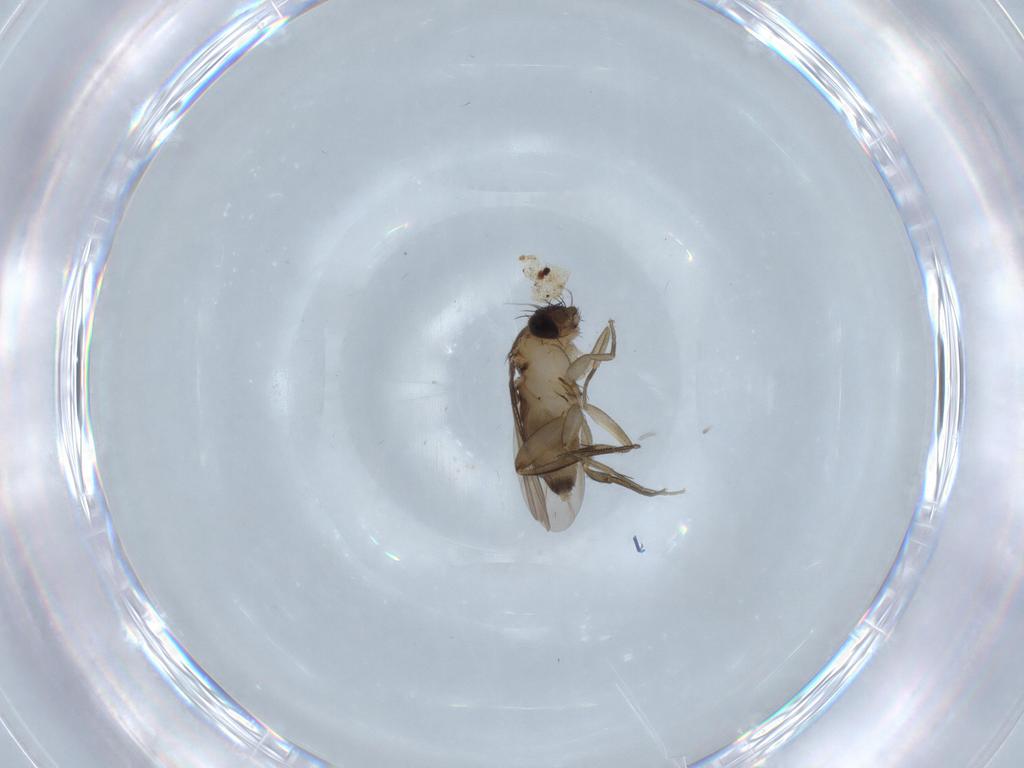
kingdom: Animalia
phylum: Arthropoda
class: Insecta
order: Diptera
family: Phoridae
